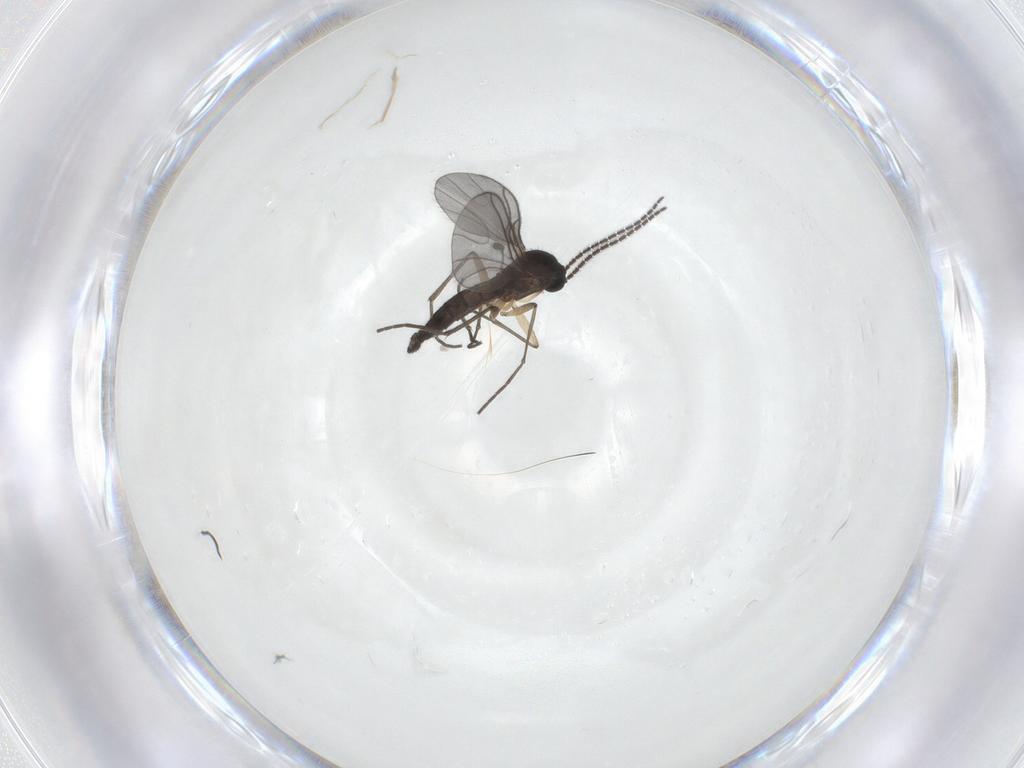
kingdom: Animalia
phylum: Arthropoda
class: Insecta
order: Diptera
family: Sciaridae
